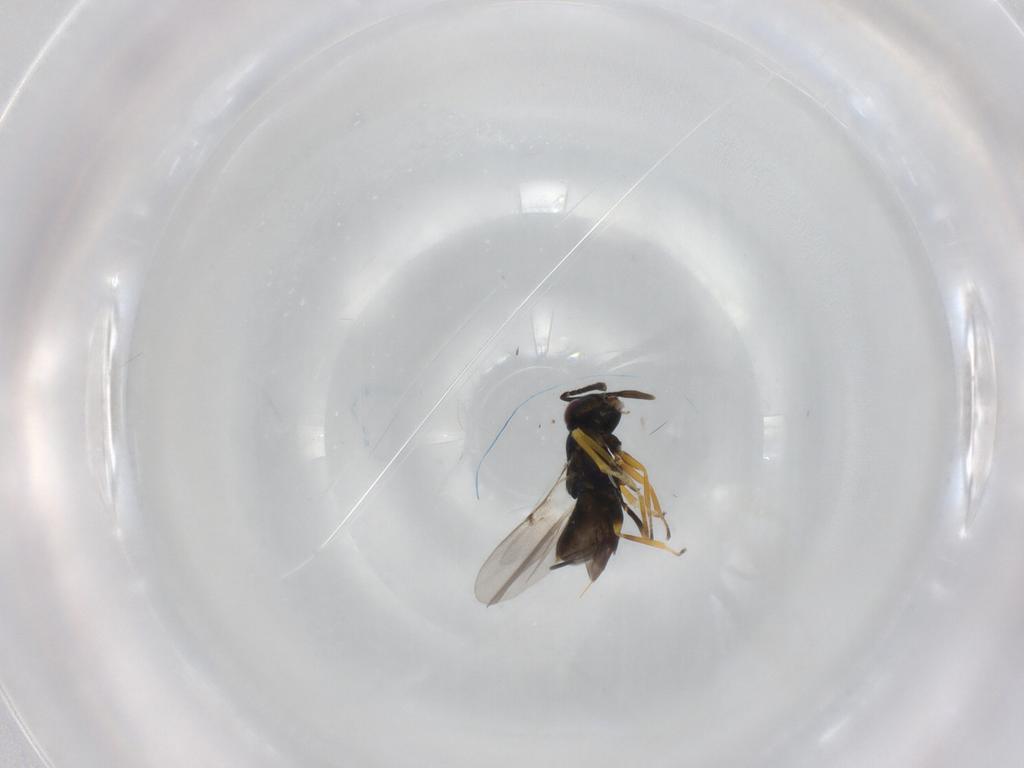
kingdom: Animalia
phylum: Arthropoda
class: Insecta
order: Hymenoptera
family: Encyrtidae
